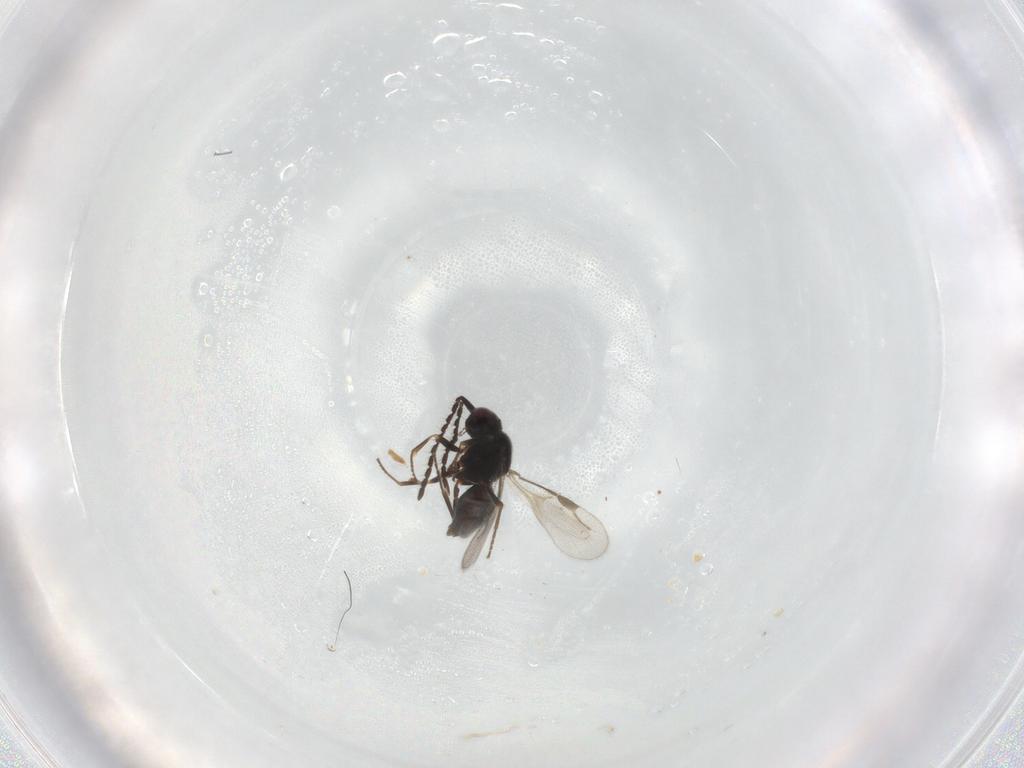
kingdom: Animalia
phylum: Arthropoda
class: Insecta
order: Hymenoptera
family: Megaspilidae
